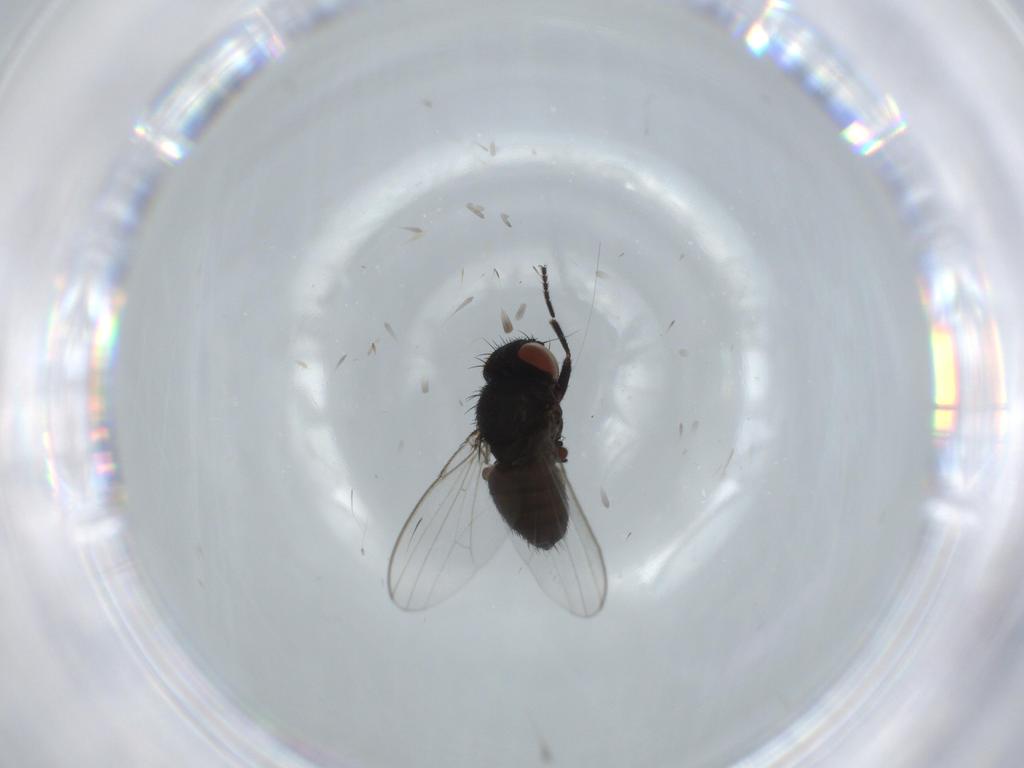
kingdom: Animalia
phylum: Arthropoda
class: Insecta
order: Diptera
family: Milichiidae
